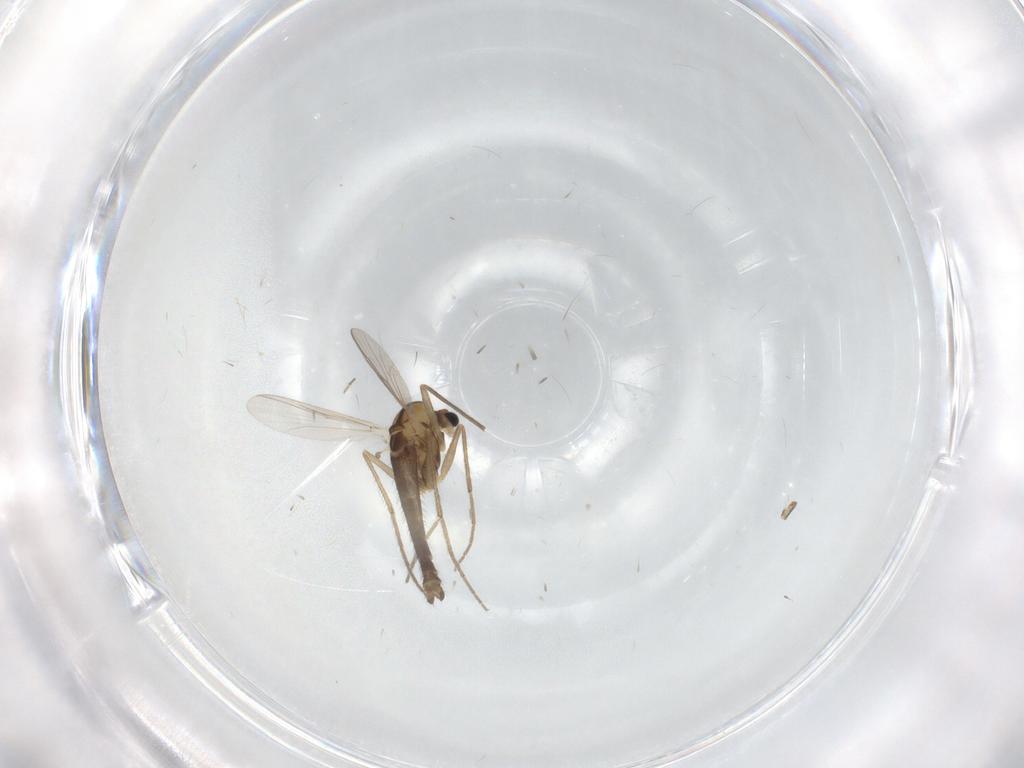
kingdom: Animalia
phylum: Arthropoda
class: Insecta
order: Diptera
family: Chironomidae
